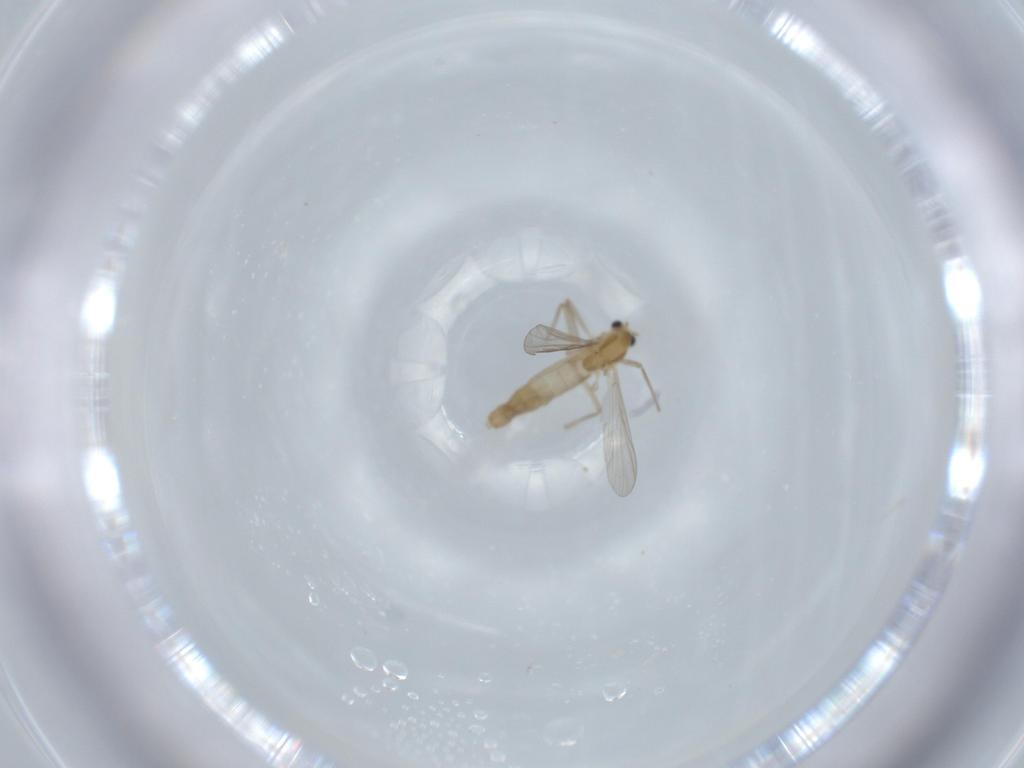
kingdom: Animalia
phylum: Arthropoda
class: Insecta
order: Diptera
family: Chironomidae
